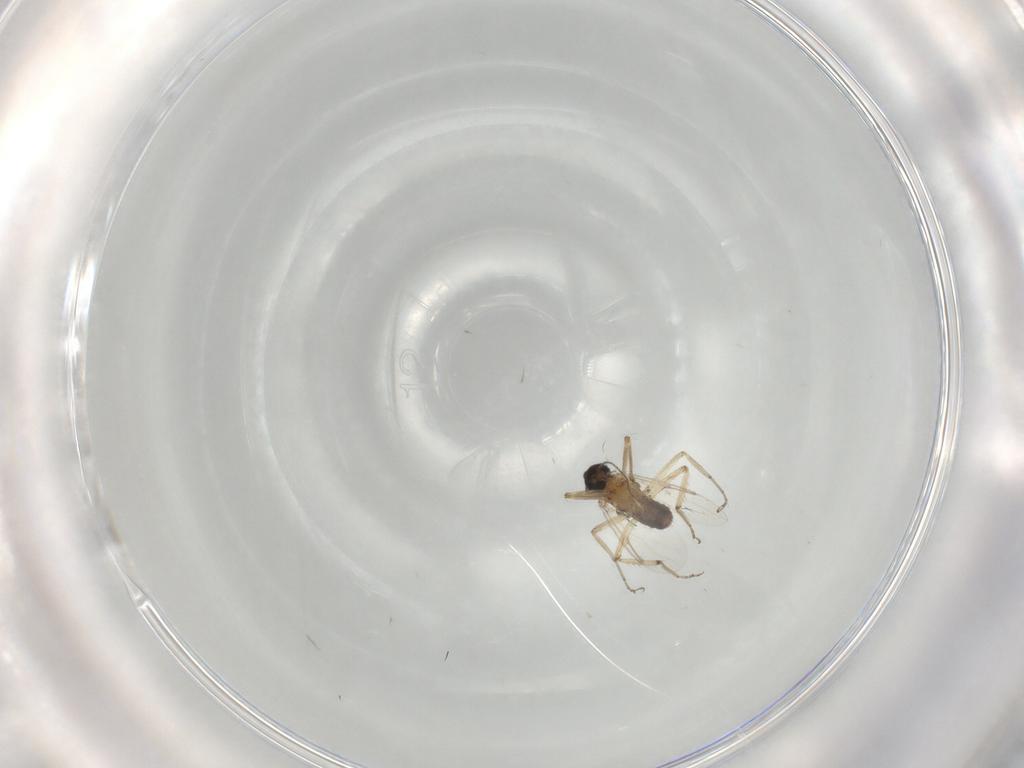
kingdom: Animalia
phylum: Arthropoda
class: Insecta
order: Diptera
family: Ceratopogonidae
